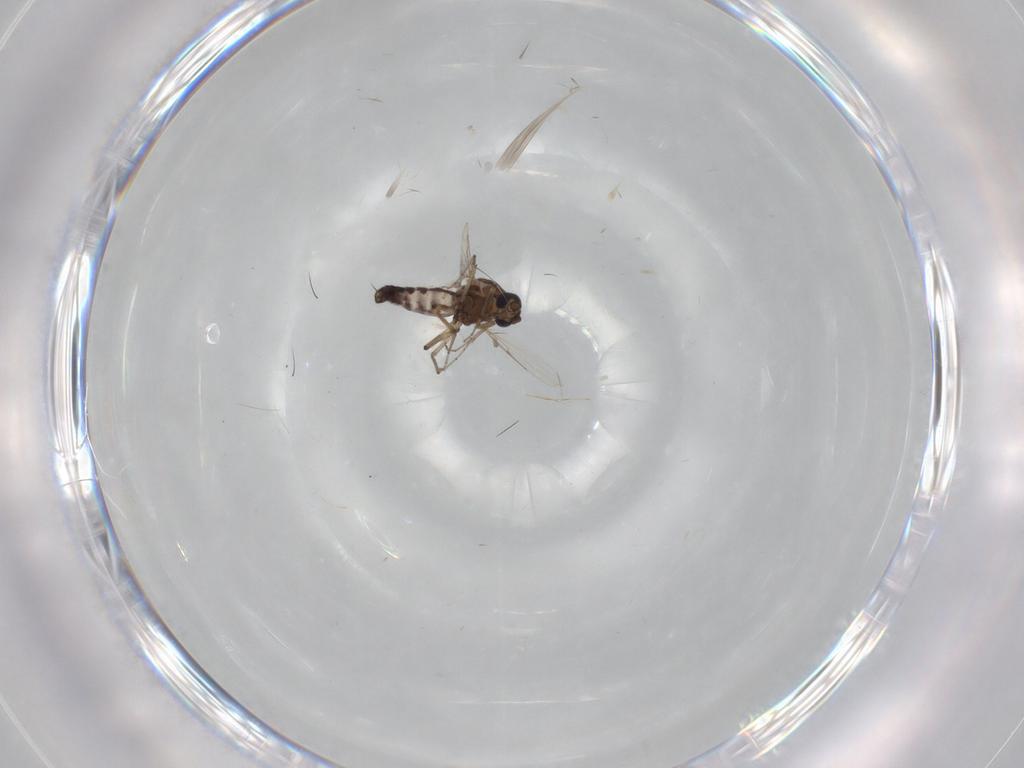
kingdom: Animalia
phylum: Arthropoda
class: Insecta
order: Diptera
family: Ceratopogonidae
